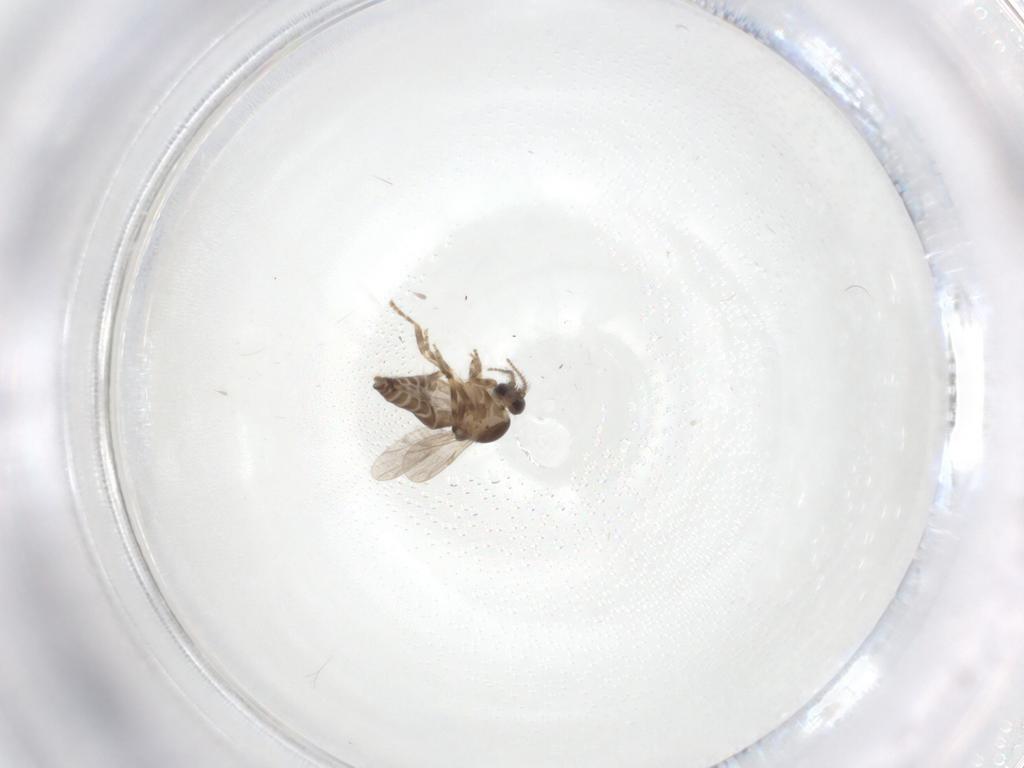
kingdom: Animalia
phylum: Arthropoda
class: Insecta
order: Diptera
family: Ceratopogonidae
